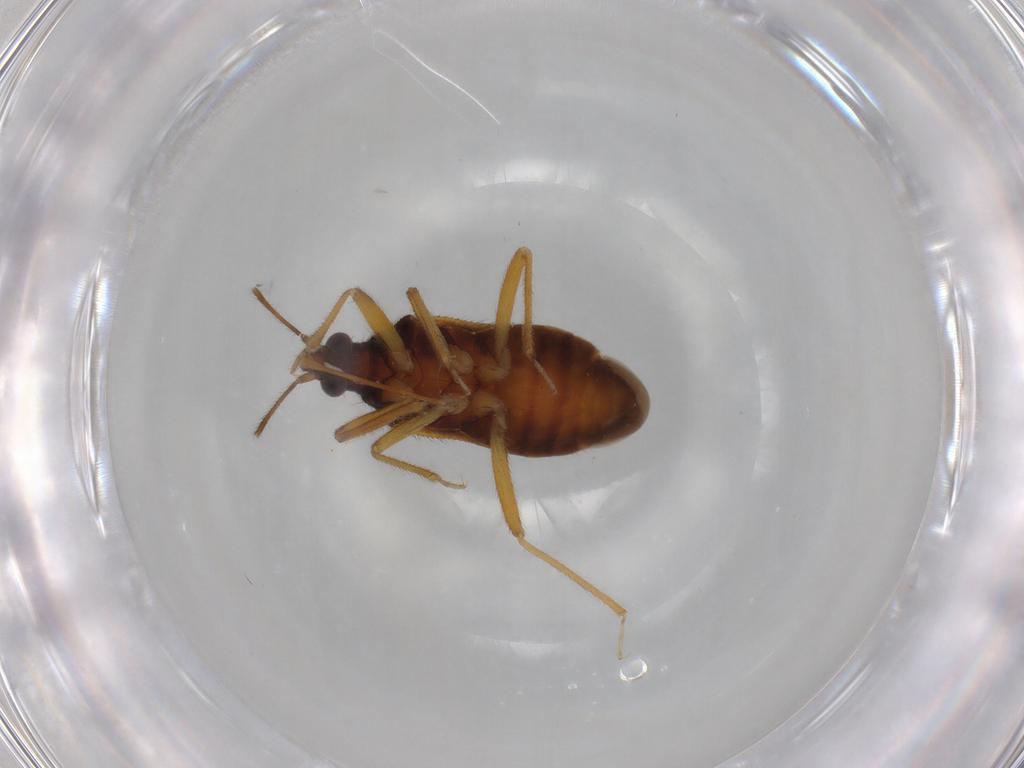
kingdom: Animalia
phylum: Arthropoda
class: Insecta
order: Hemiptera
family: Anthocoridae
